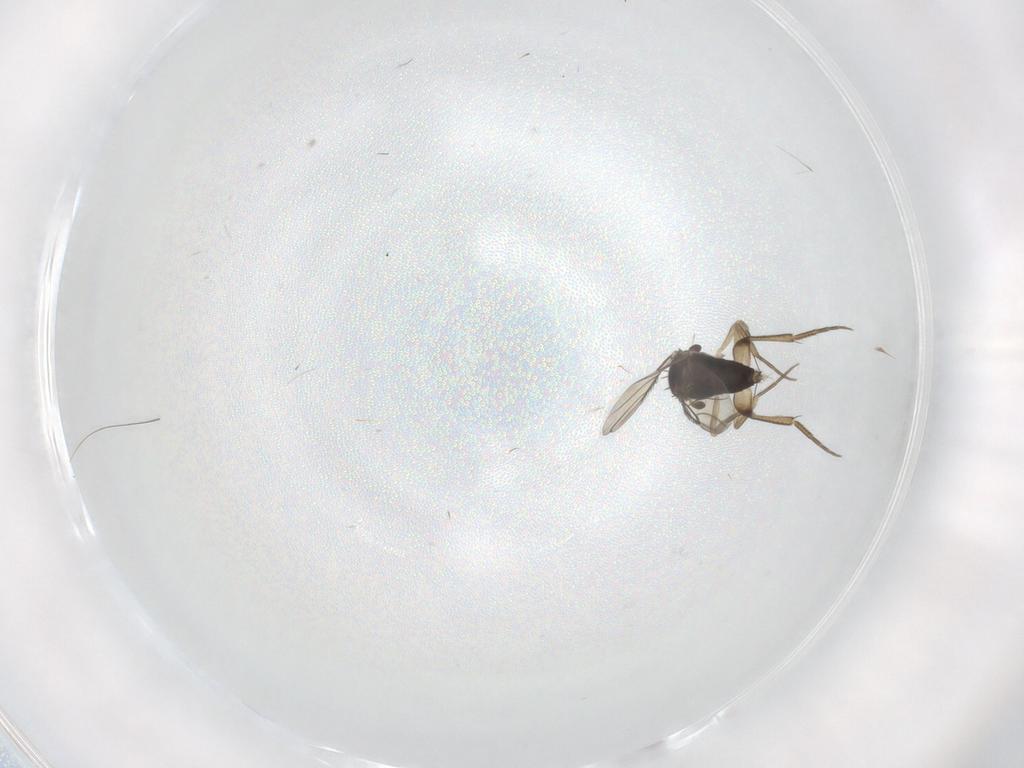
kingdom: Animalia
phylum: Arthropoda
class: Insecta
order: Diptera
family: Phoridae
